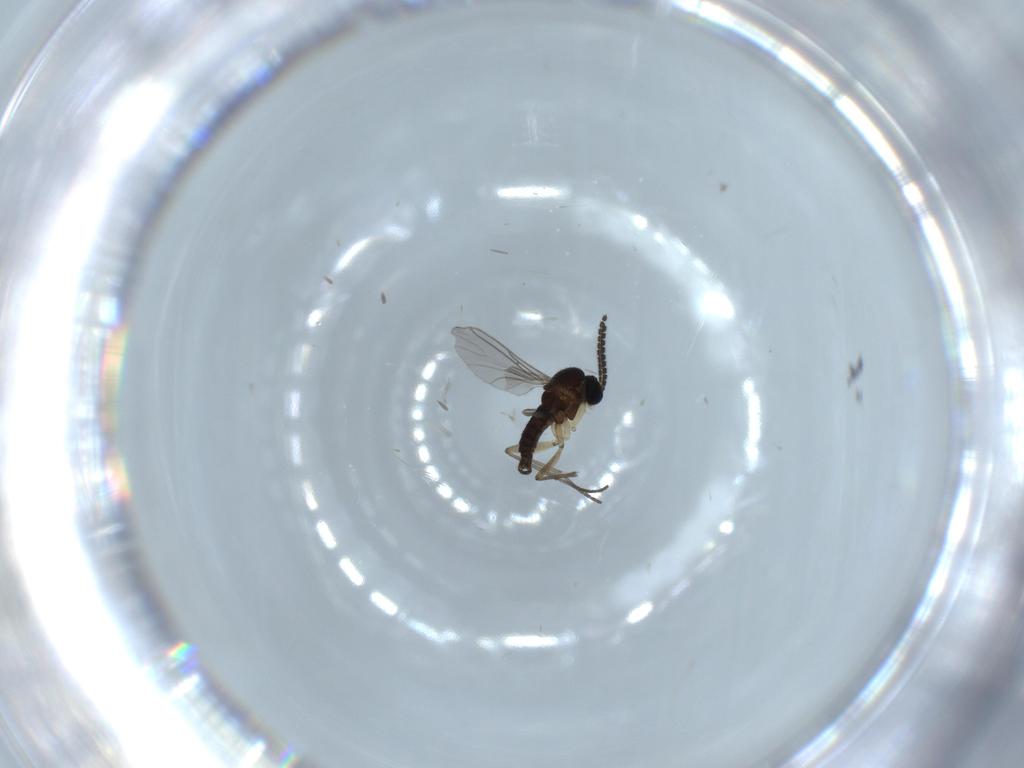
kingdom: Animalia
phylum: Arthropoda
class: Insecta
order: Diptera
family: Sciaridae
